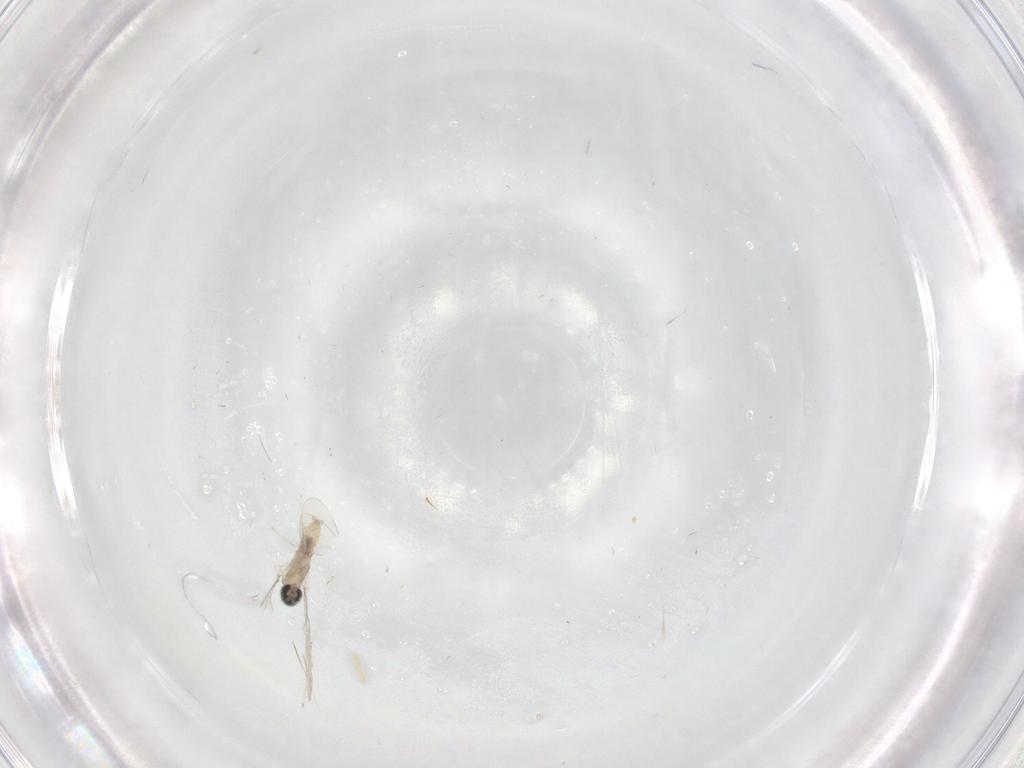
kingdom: Animalia
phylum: Arthropoda
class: Insecta
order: Diptera
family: Cecidomyiidae
